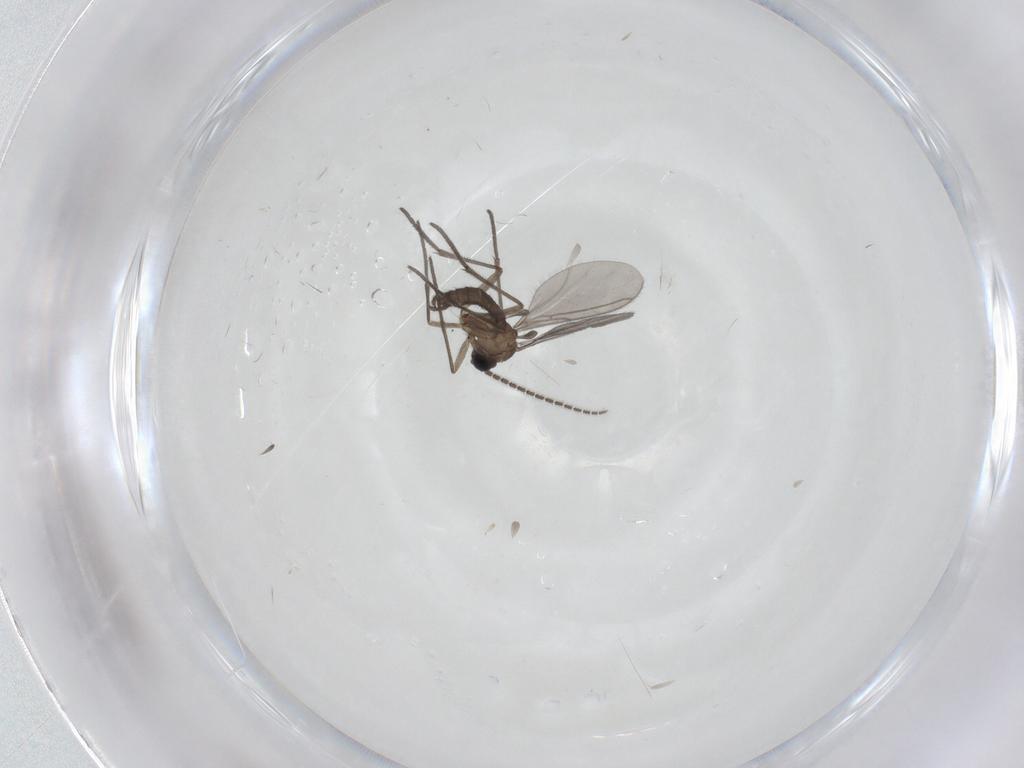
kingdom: Animalia
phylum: Arthropoda
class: Insecta
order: Diptera
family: Sciaridae
